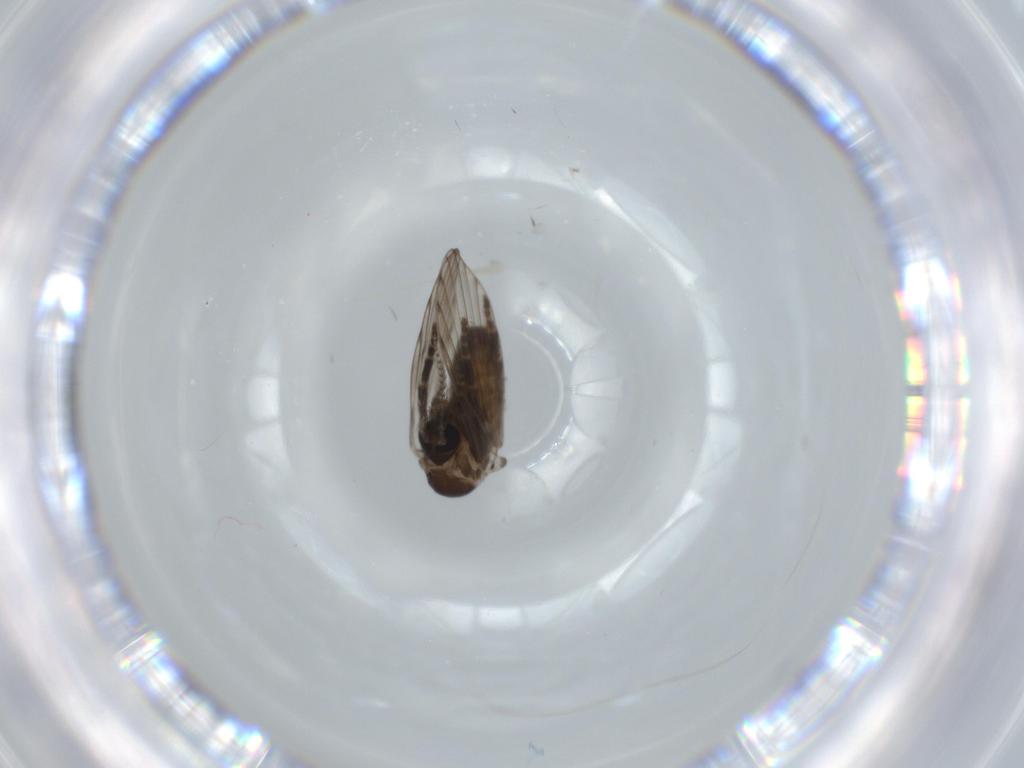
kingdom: Animalia
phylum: Arthropoda
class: Insecta
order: Diptera
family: Psychodidae
